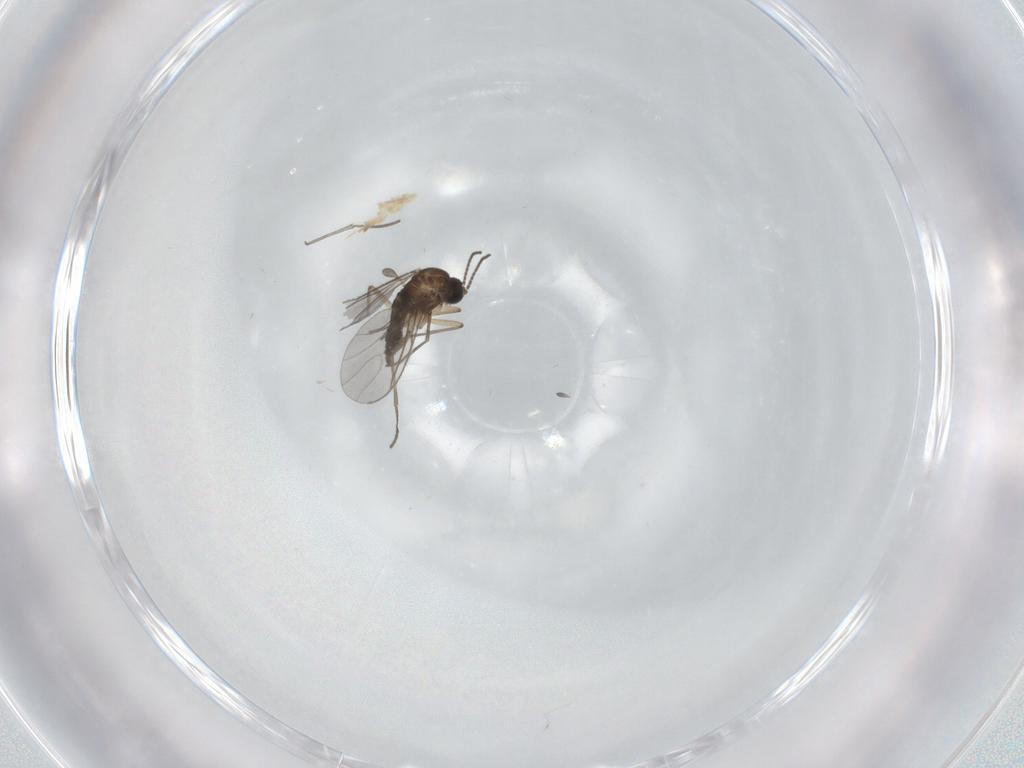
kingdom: Animalia
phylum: Arthropoda
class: Insecta
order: Diptera
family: Sciaridae
